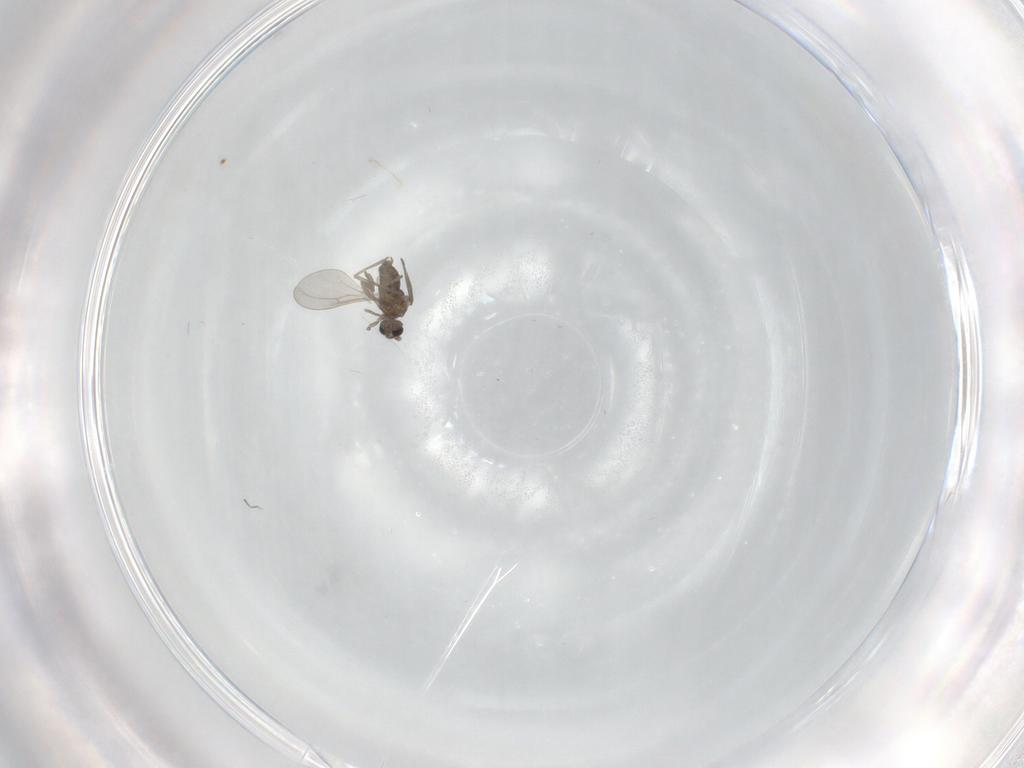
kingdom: Animalia
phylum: Arthropoda
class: Insecta
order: Diptera
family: Cecidomyiidae
